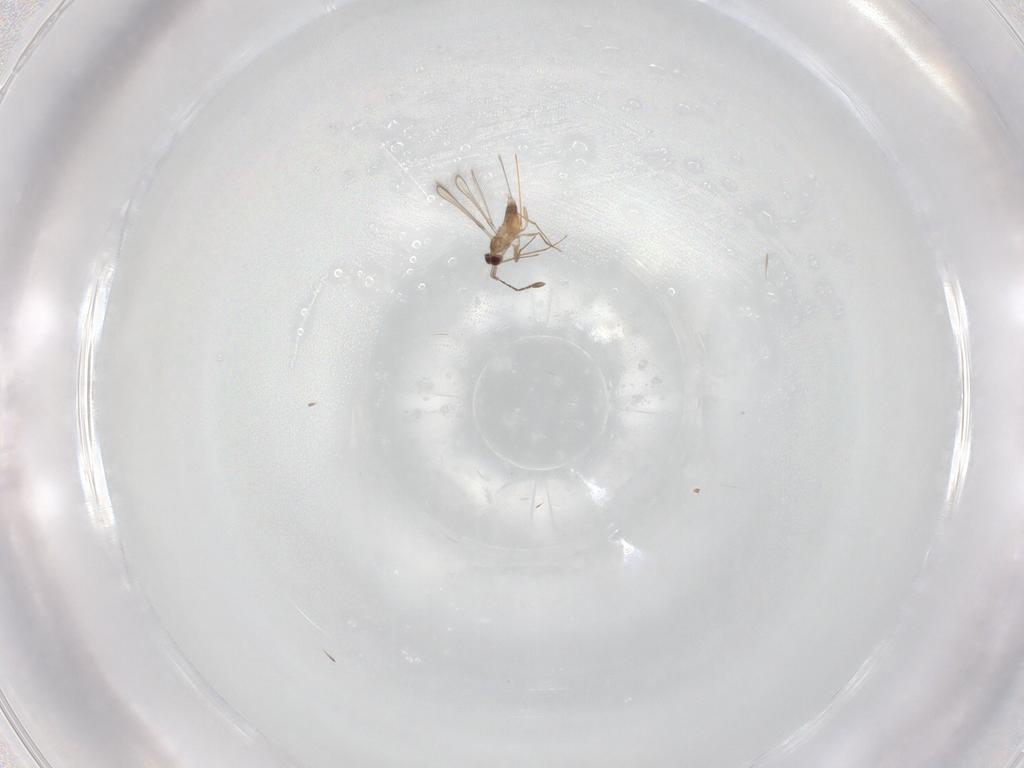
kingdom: Animalia
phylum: Arthropoda
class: Insecta
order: Hymenoptera
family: Mymaridae
